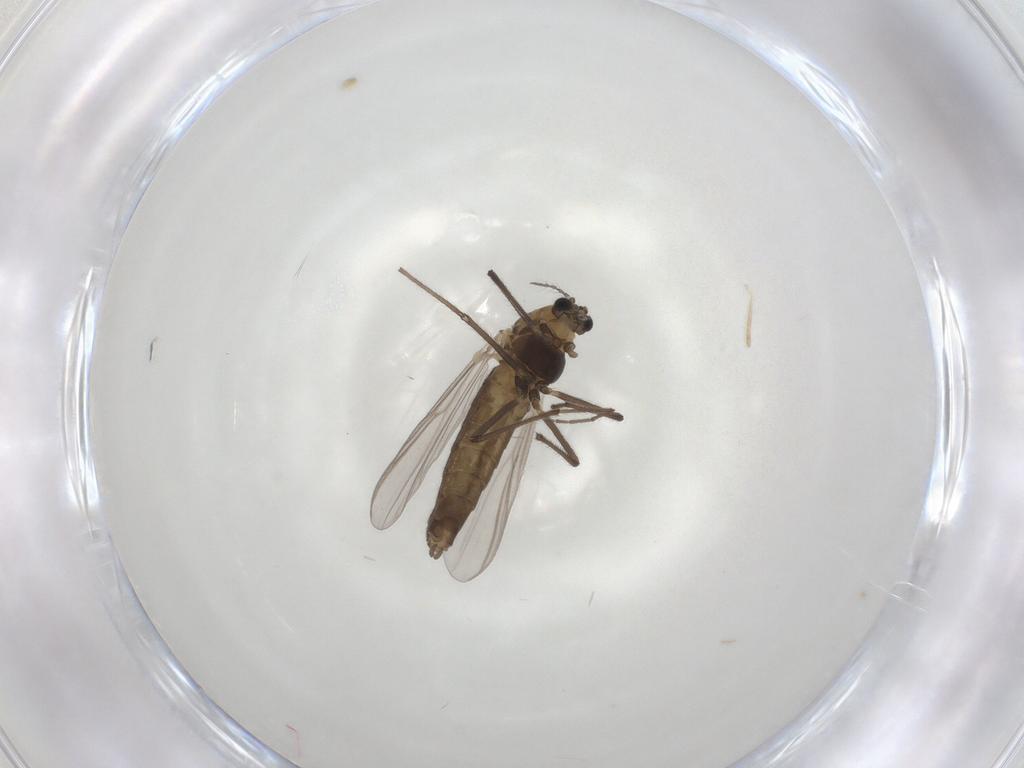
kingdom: Animalia
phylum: Arthropoda
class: Insecta
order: Diptera
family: Chironomidae
